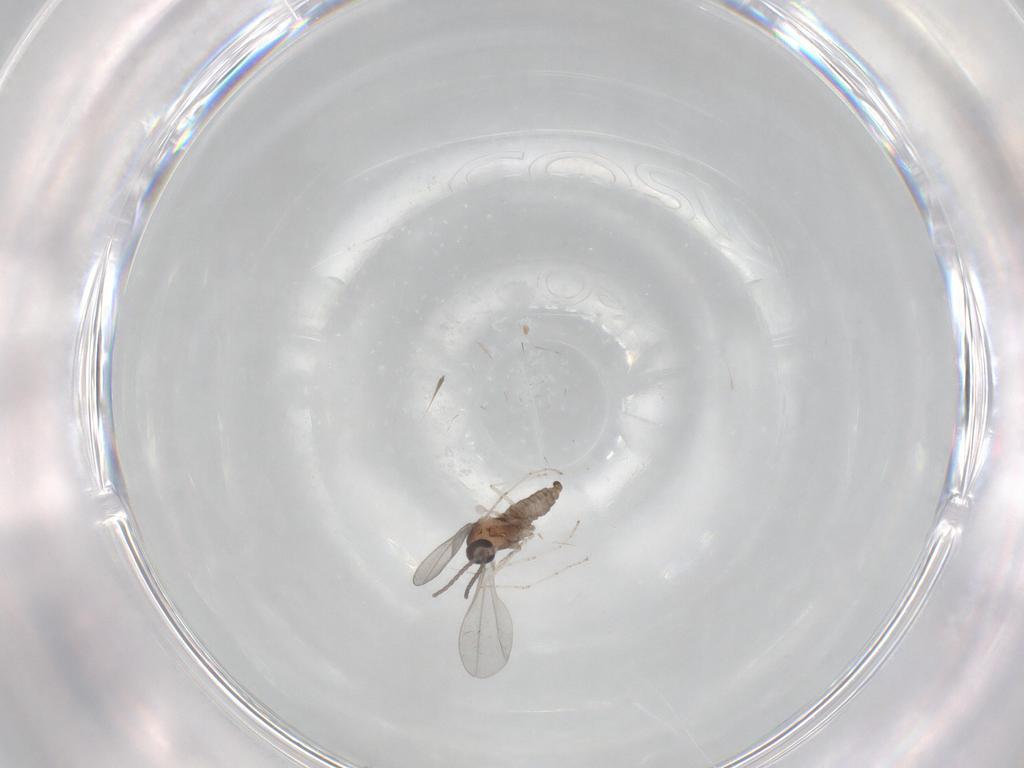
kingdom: Animalia
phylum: Arthropoda
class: Insecta
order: Diptera
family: Cecidomyiidae
